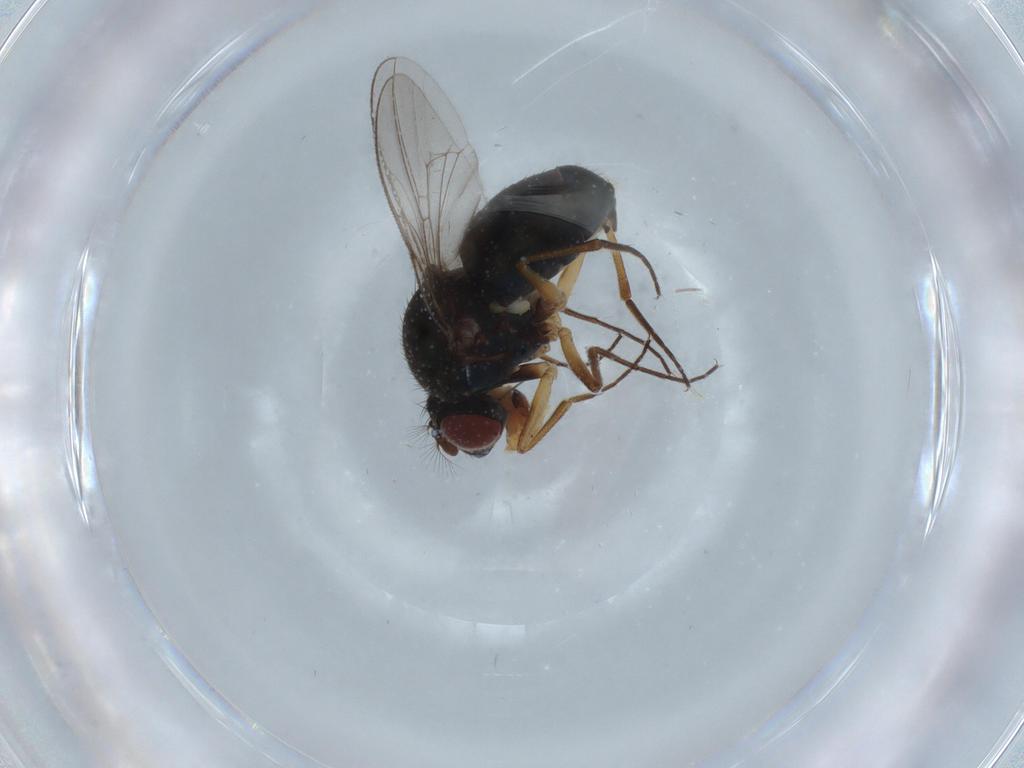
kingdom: Animalia
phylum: Arthropoda
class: Insecta
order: Diptera
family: Ephydridae
